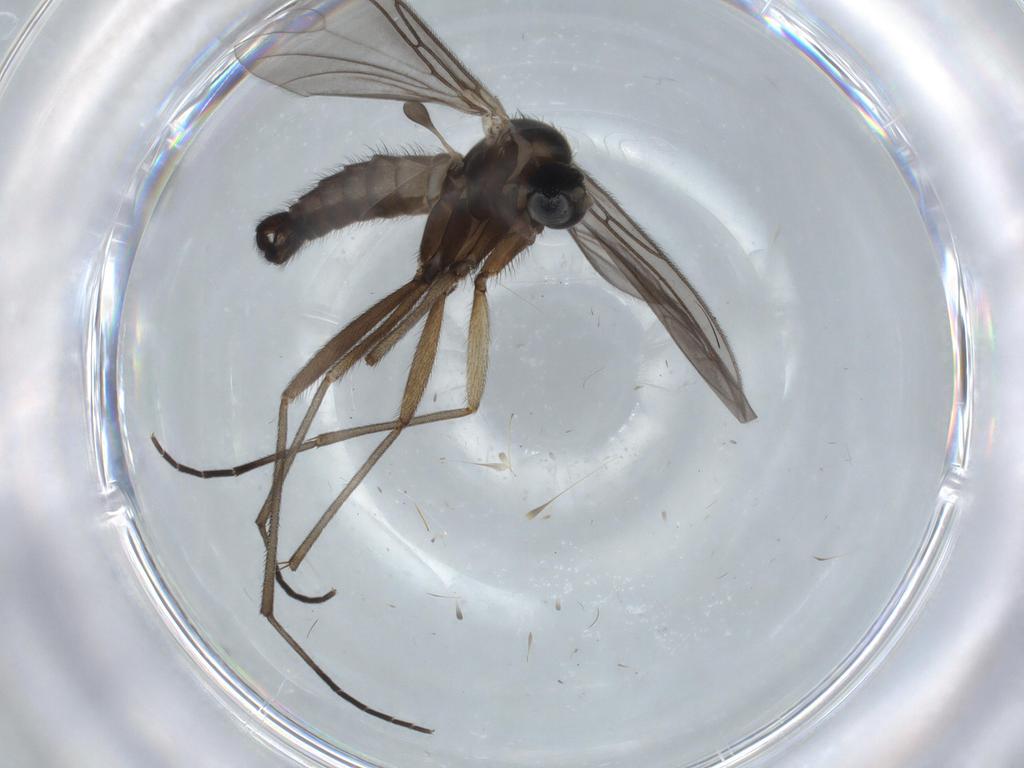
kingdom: Animalia
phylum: Arthropoda
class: Insecta
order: Diptera
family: Sciaridae
